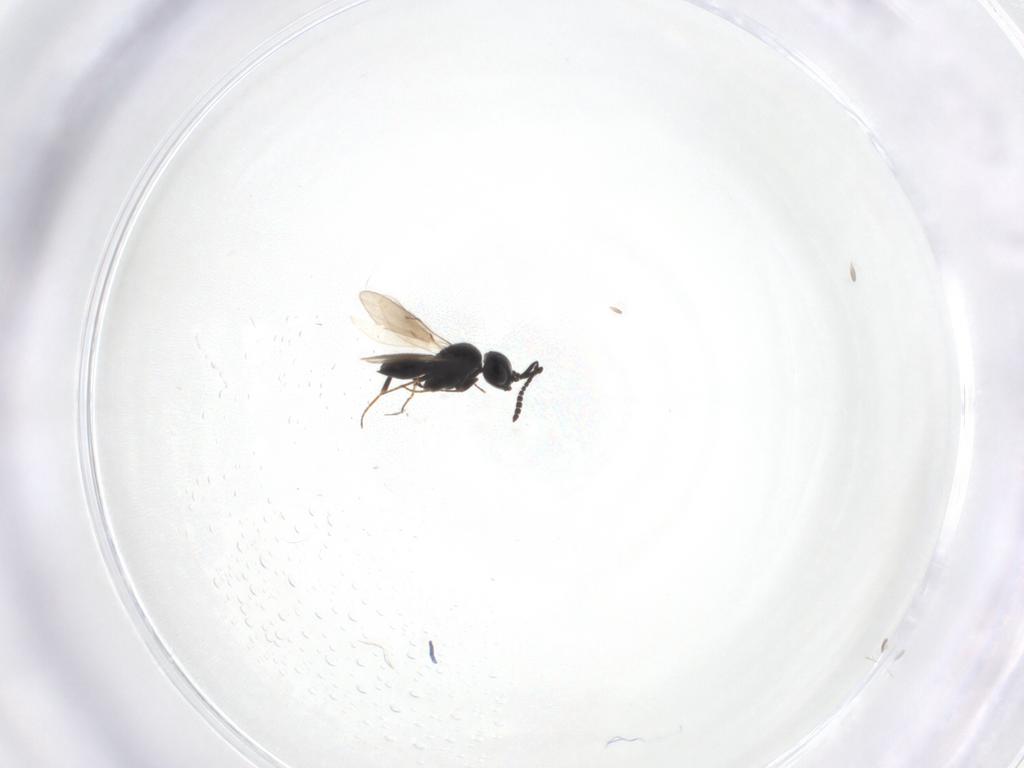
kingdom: Animalia
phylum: Arthropoda
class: Insecta
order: Hymenoptera
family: Scelionidae
